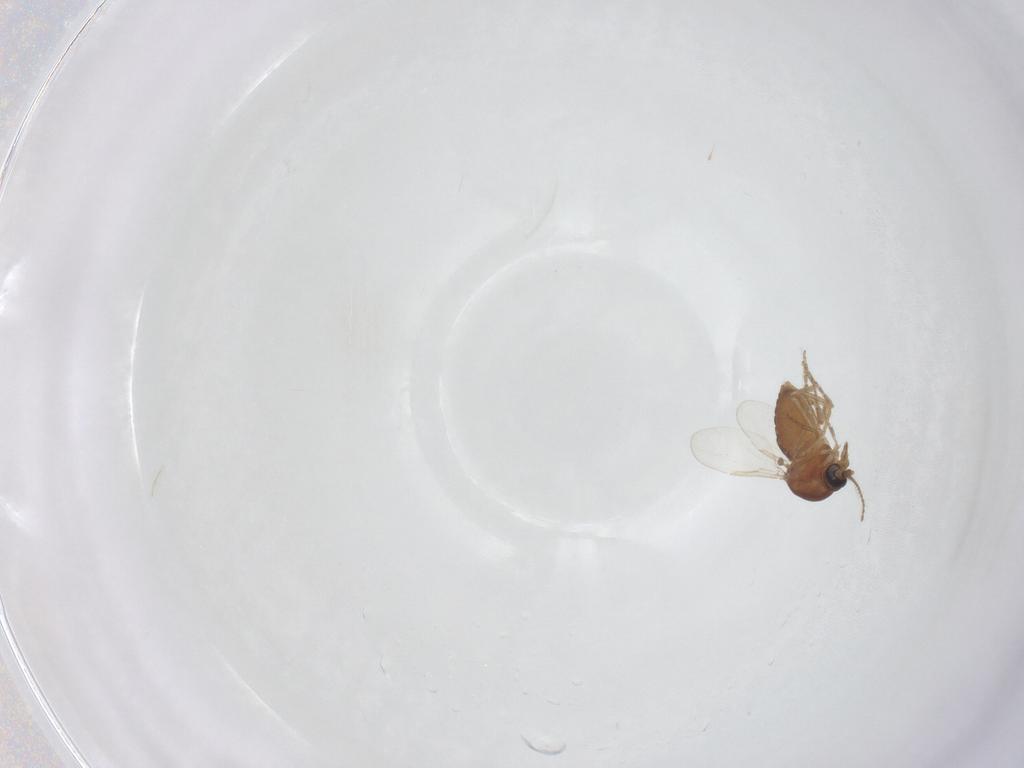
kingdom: Animalia
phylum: Arthropoda
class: Insecta
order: Diptera
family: Ceratopogonidae
